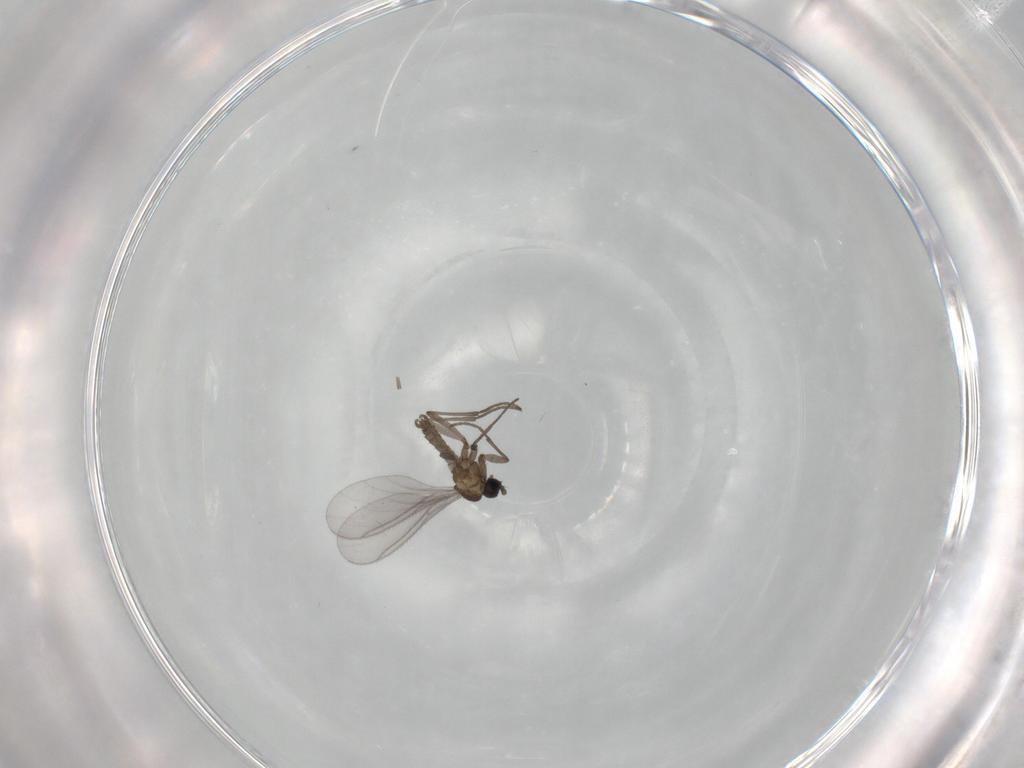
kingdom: Animalia
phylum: Arthropoda
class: Insecta
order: Diptera
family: Sciaridae
